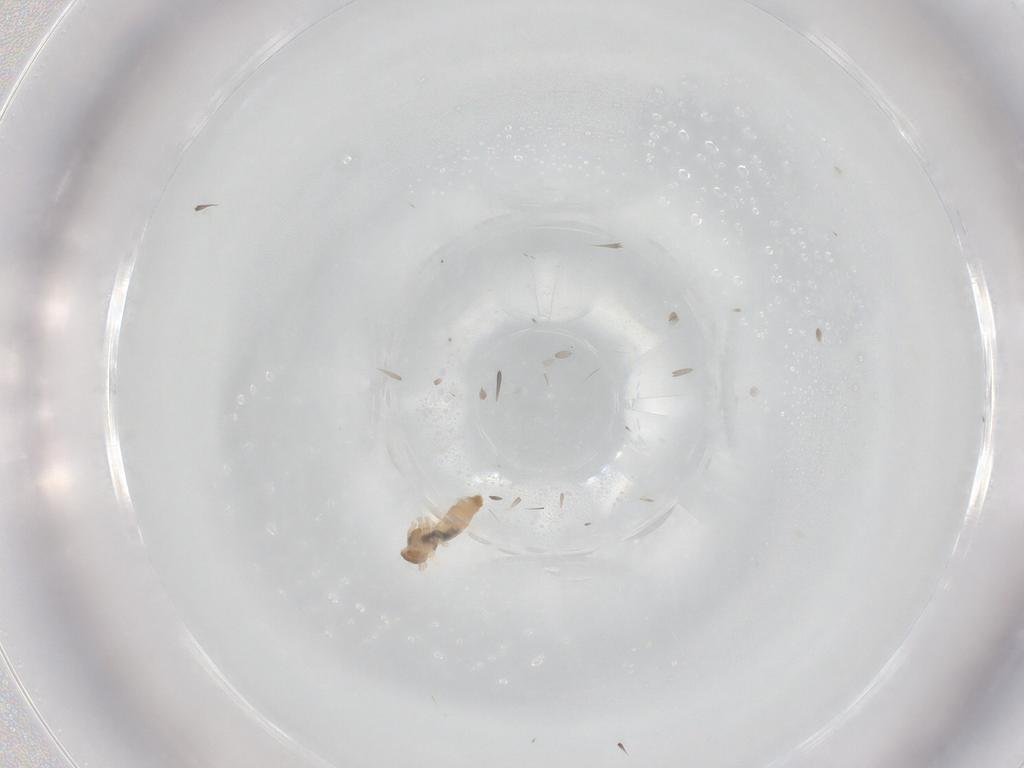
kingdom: Animalia
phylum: Arthropoda
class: Insecta
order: Diptera
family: Cecidomyiidae
